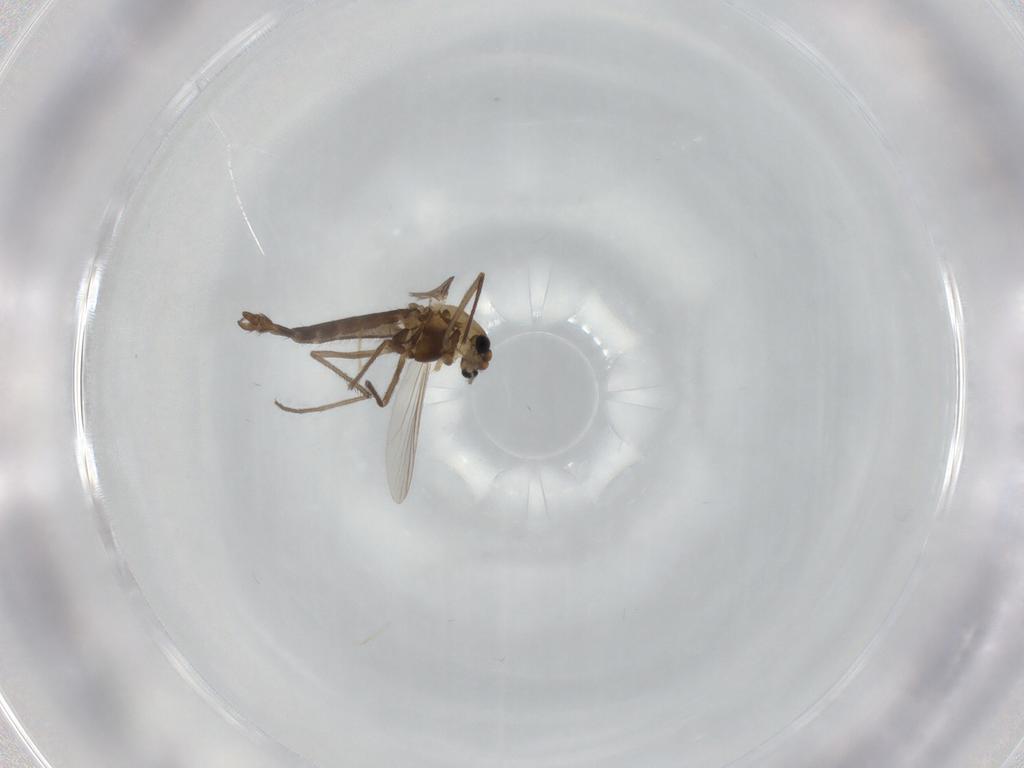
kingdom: Animalia
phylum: Arthropoda
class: Insecta
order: Diptera
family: Chironomidae
